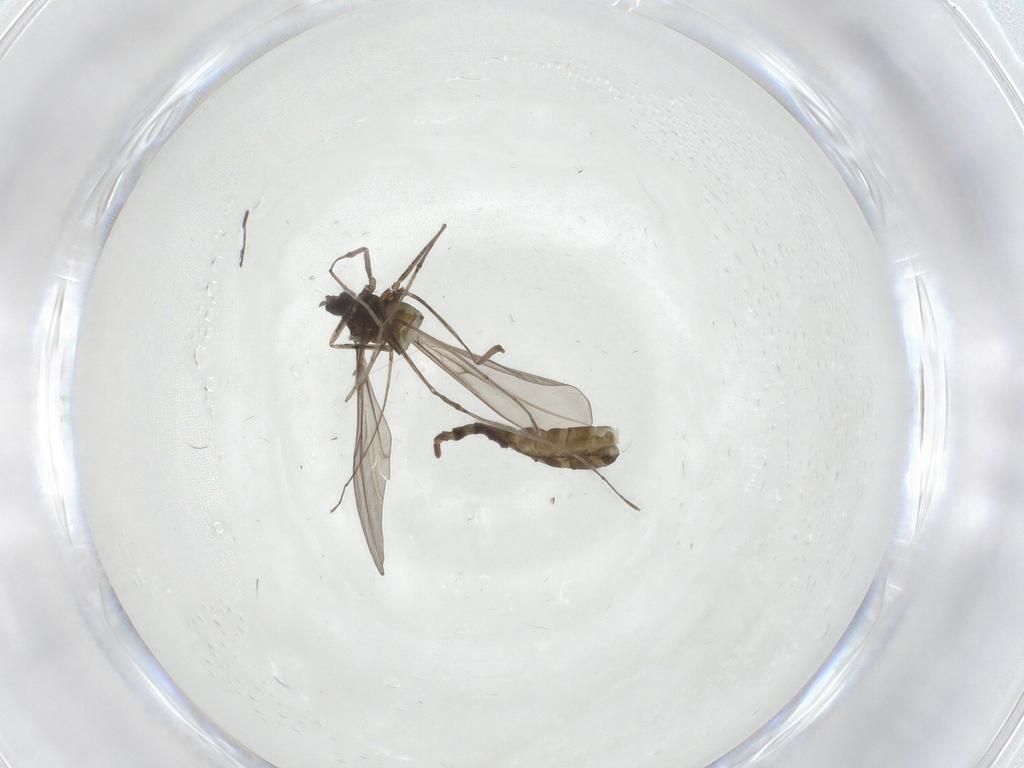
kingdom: Animalia
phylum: Arthropoda
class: Insecta
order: Diptera
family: Cecidomyiidae
